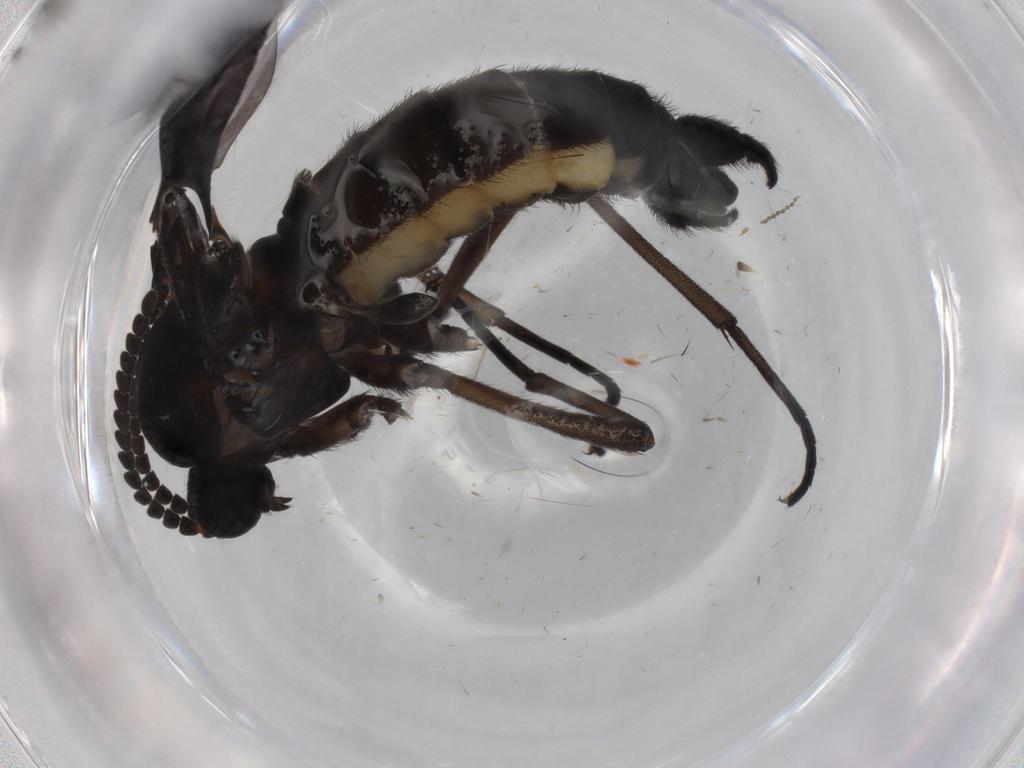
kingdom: Animalia
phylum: Arthropoda
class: Insecta
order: Diptera
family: Sciaridae
